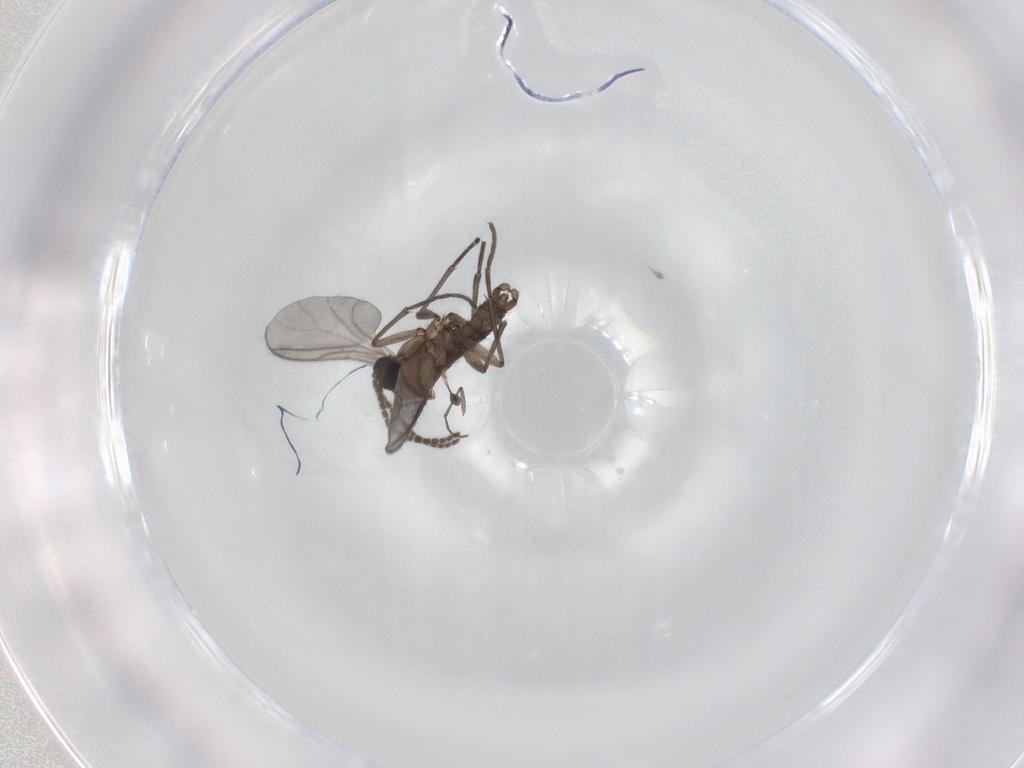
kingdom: Animalia
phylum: Arthropoda
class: Insecta
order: Diptera
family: Sciaridae
